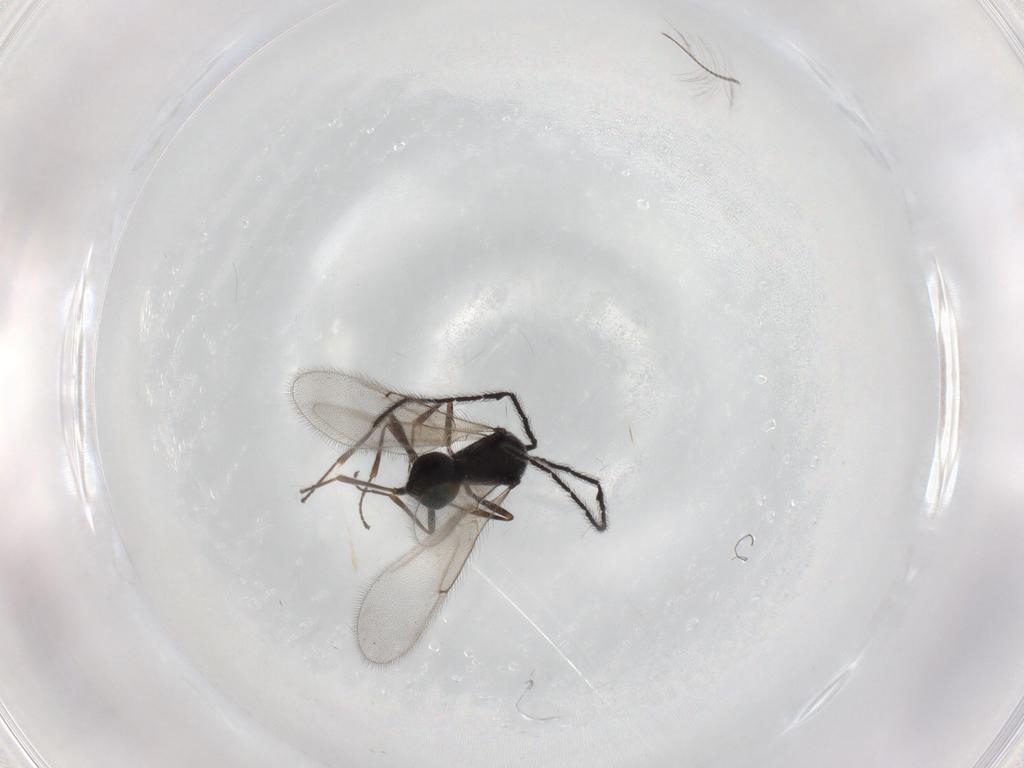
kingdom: Animalia
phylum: Arthropoda
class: Insecta
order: Hymenoptera
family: Scelionidae
